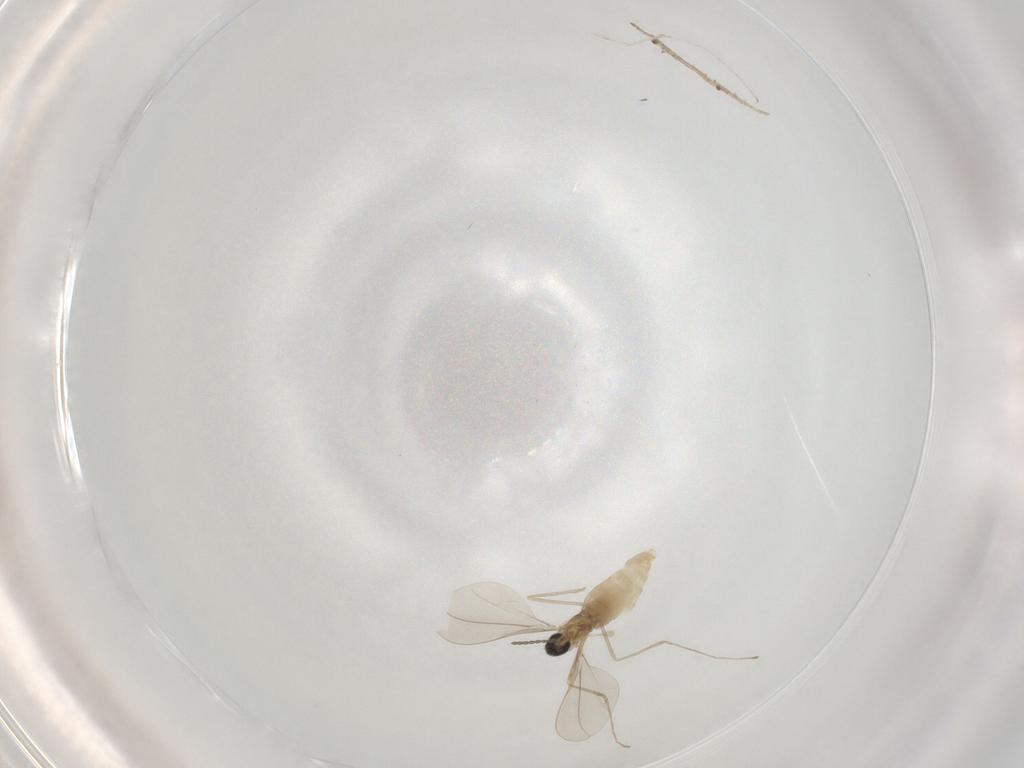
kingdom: Animalia
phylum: Arthropoda
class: Insecta
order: Diptera
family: Cecidomyiidae
